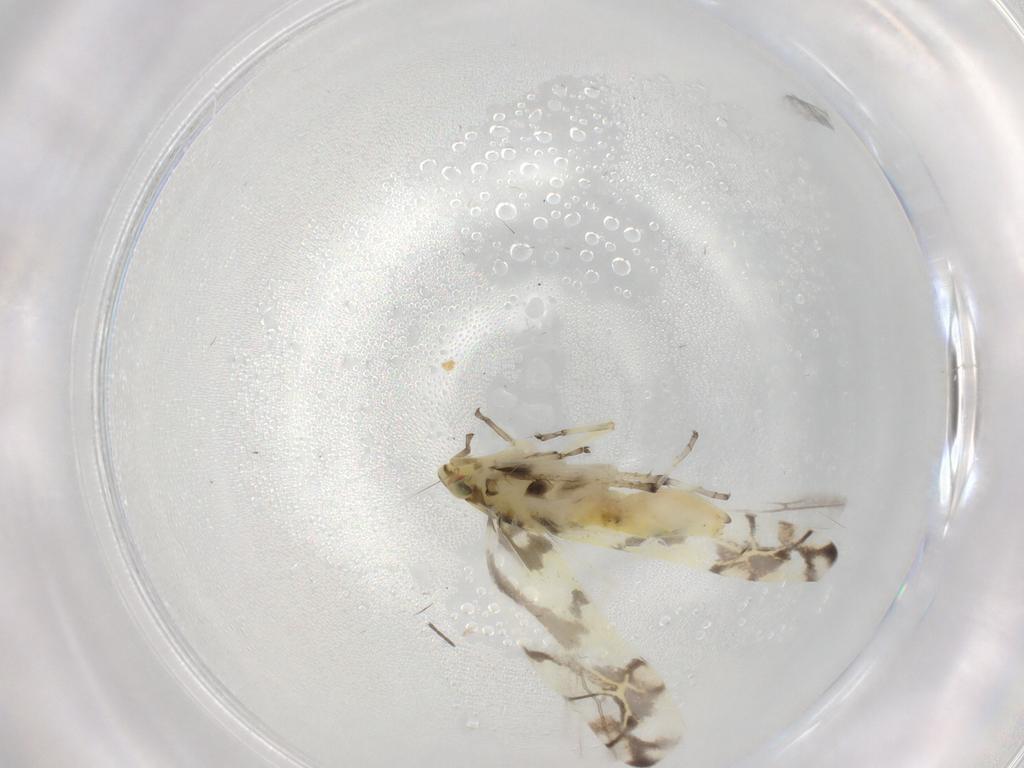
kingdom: Animalia
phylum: Arthropoda
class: Insecta
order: Hemiptera
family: Cicadellidae
